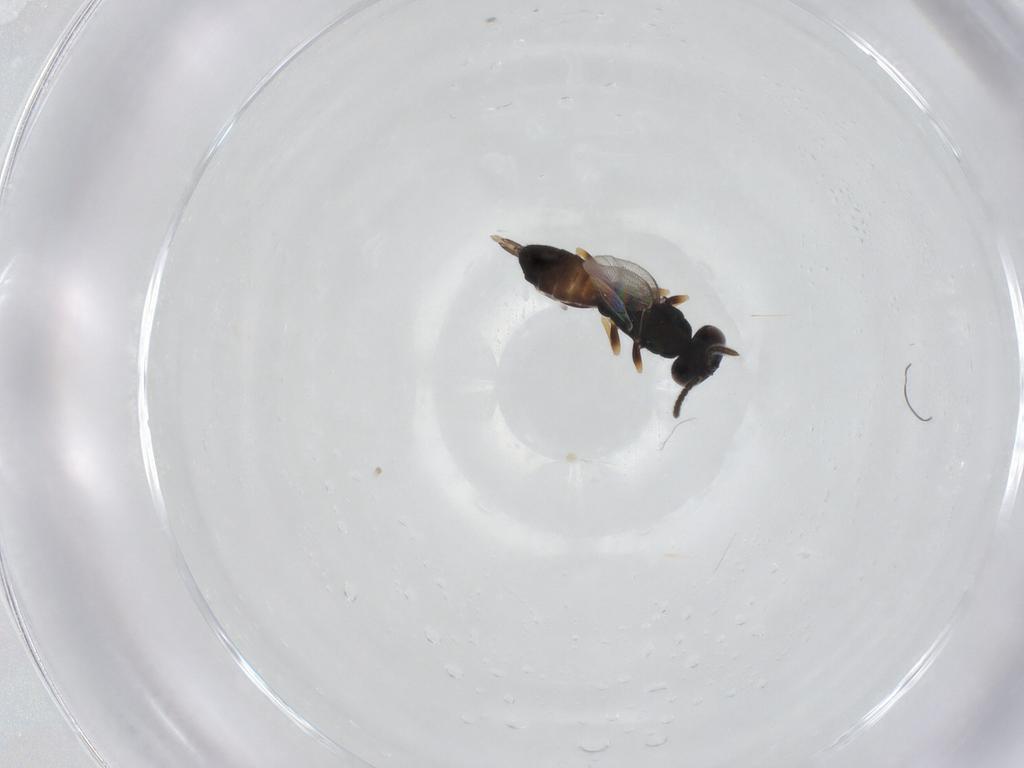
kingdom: Animalia
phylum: Arthropoda
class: Insecta
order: Hymenoptera
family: Pteromalidae
